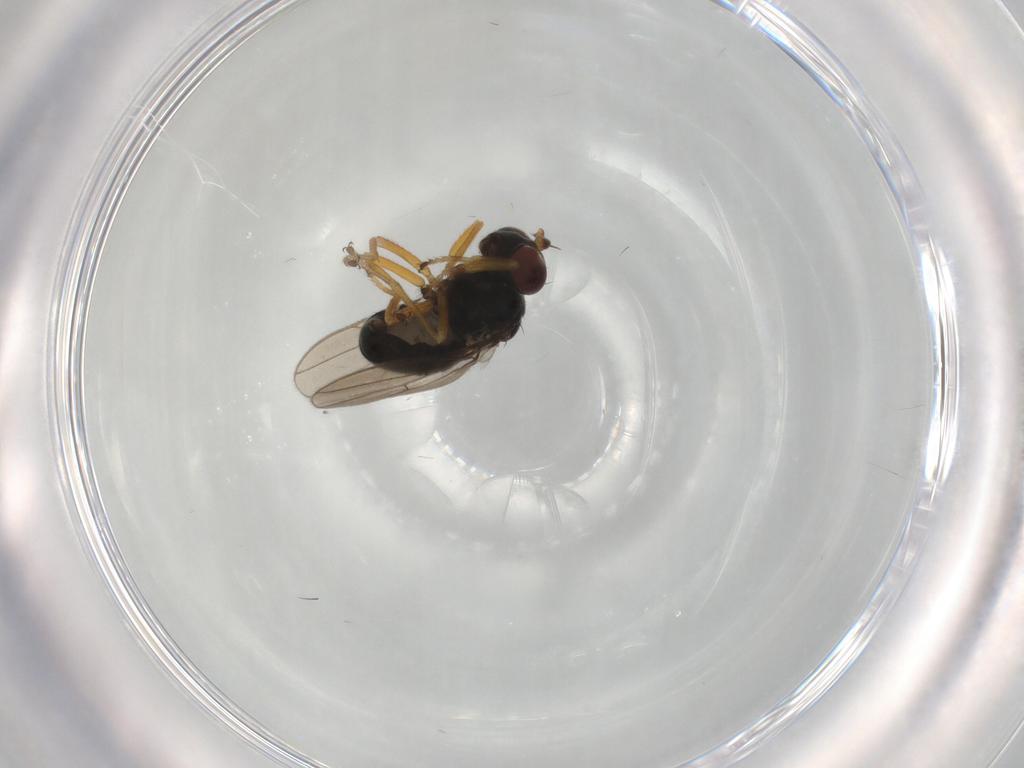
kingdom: Animalia
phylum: Arthropoda
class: Insecta
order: Diptera
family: Ephydridae
